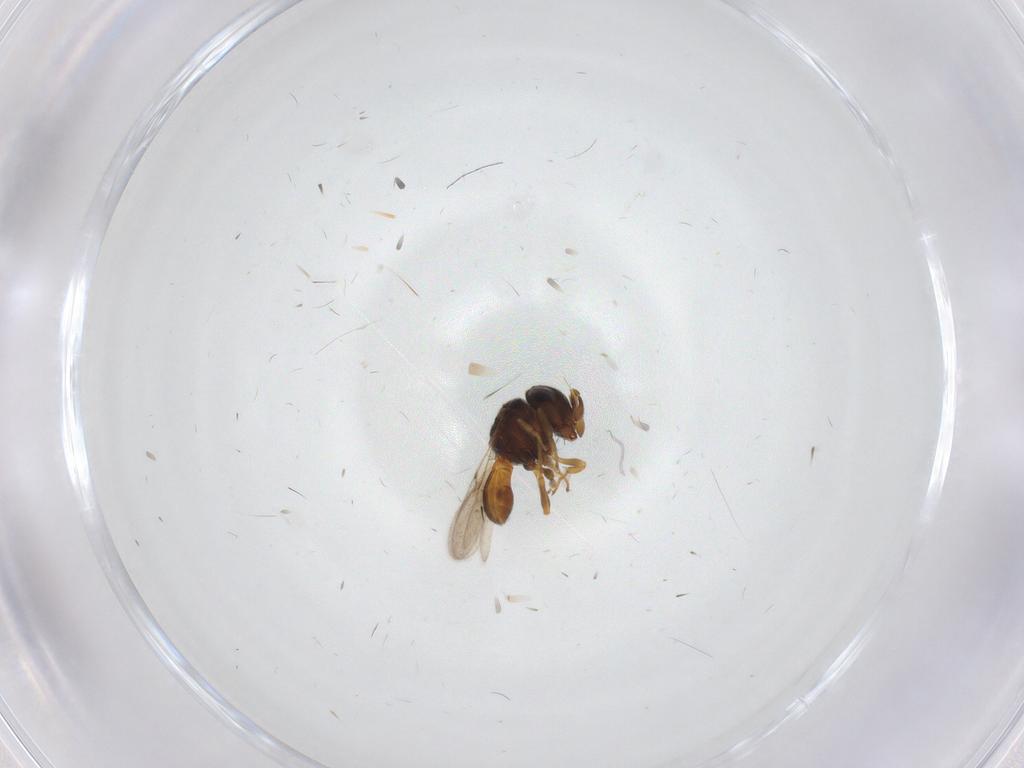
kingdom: Animalia
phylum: Arthropoda
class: Insecta
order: Hymenoptera
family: Scelionidae
